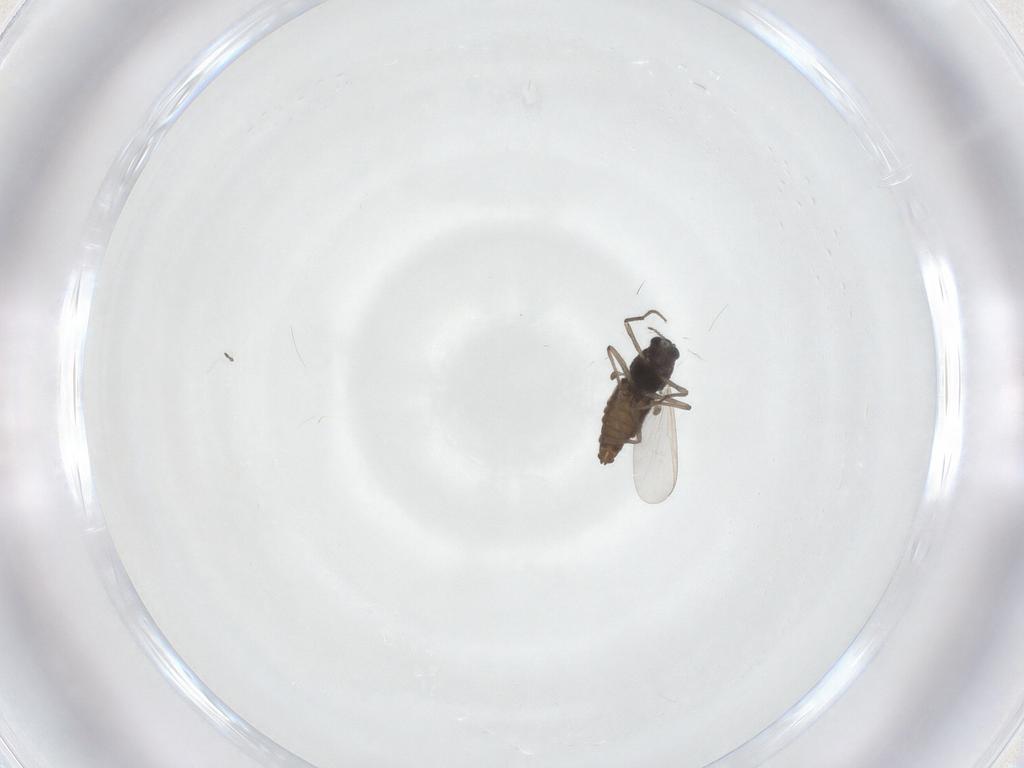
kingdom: Animalia
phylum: Arthropoda
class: Insecta
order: Diptera
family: Chironomidae
